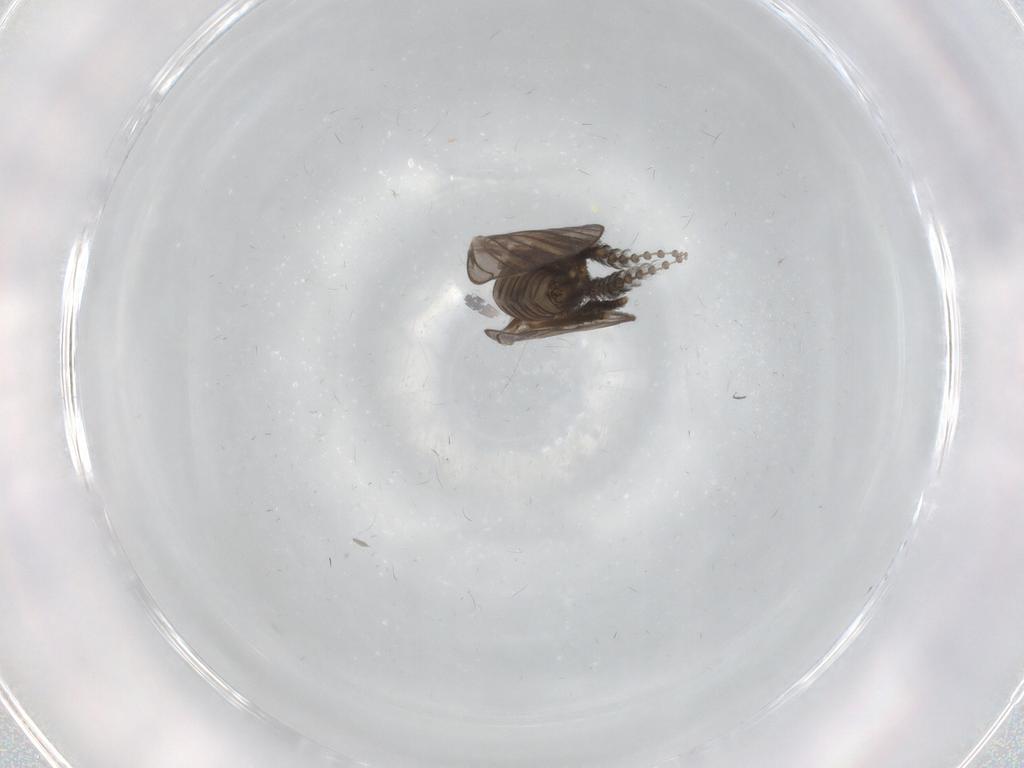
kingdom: Animalia
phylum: Arthropoda
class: Insecta
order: Diptera
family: Psychodidae
